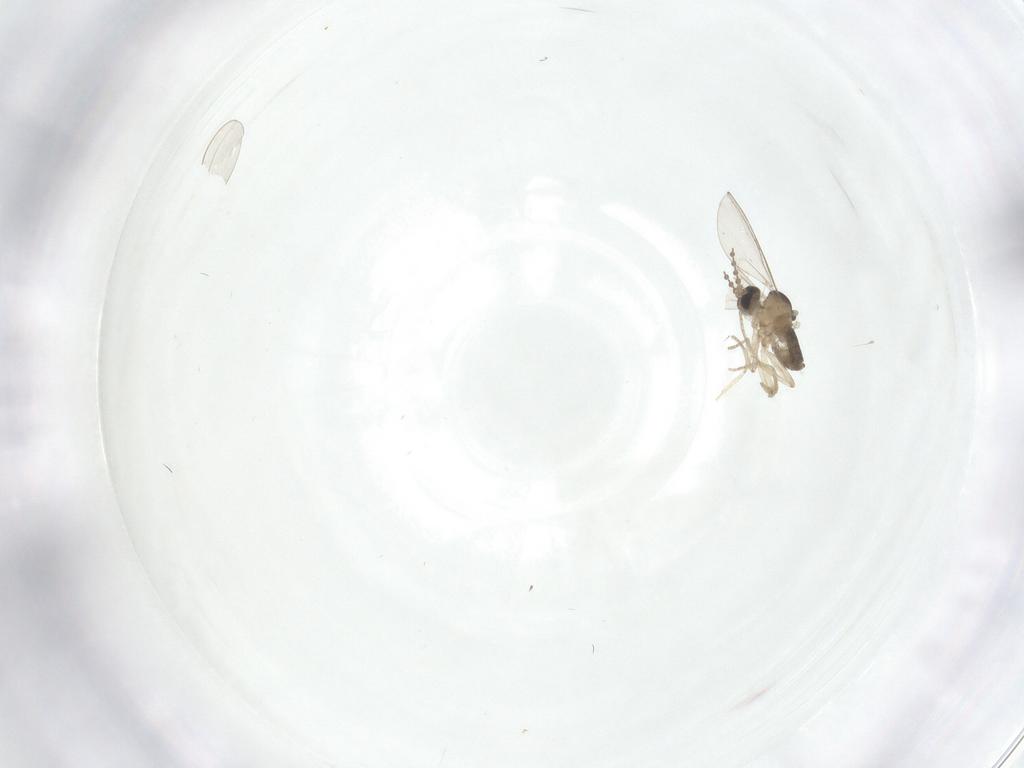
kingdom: Animalia
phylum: Arthropoda
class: Insecta
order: Diptera
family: Cecidomyiidae
